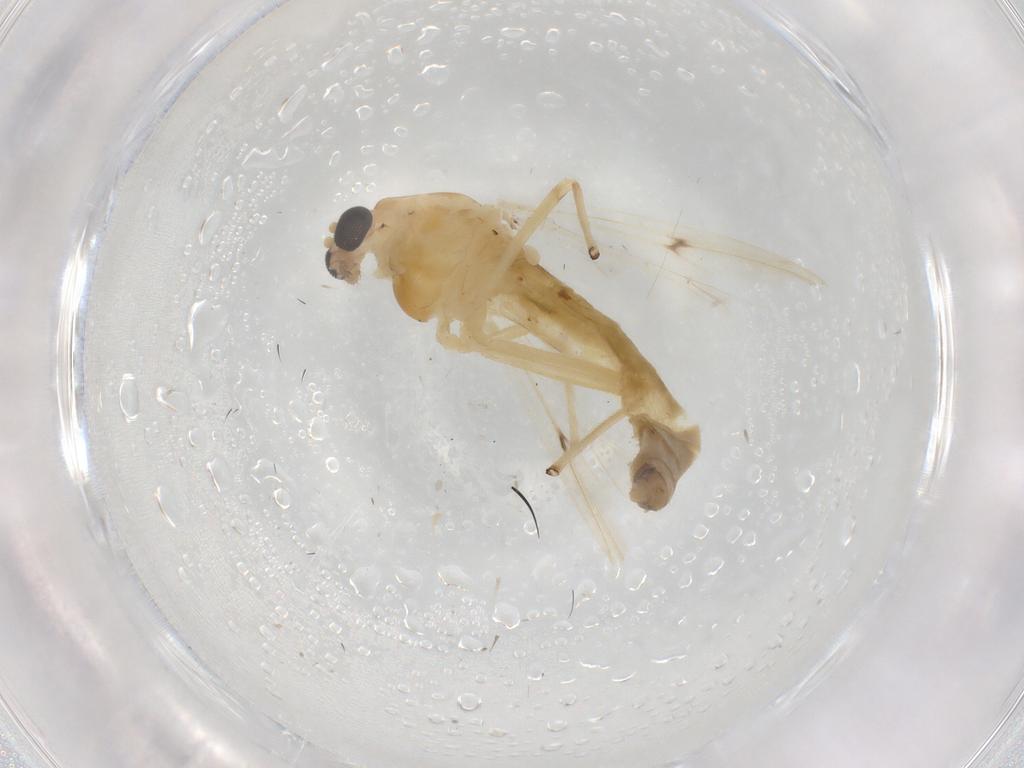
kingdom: Animalia
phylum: Arthropoda
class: Insecta
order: Diptera
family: Chironomidae
